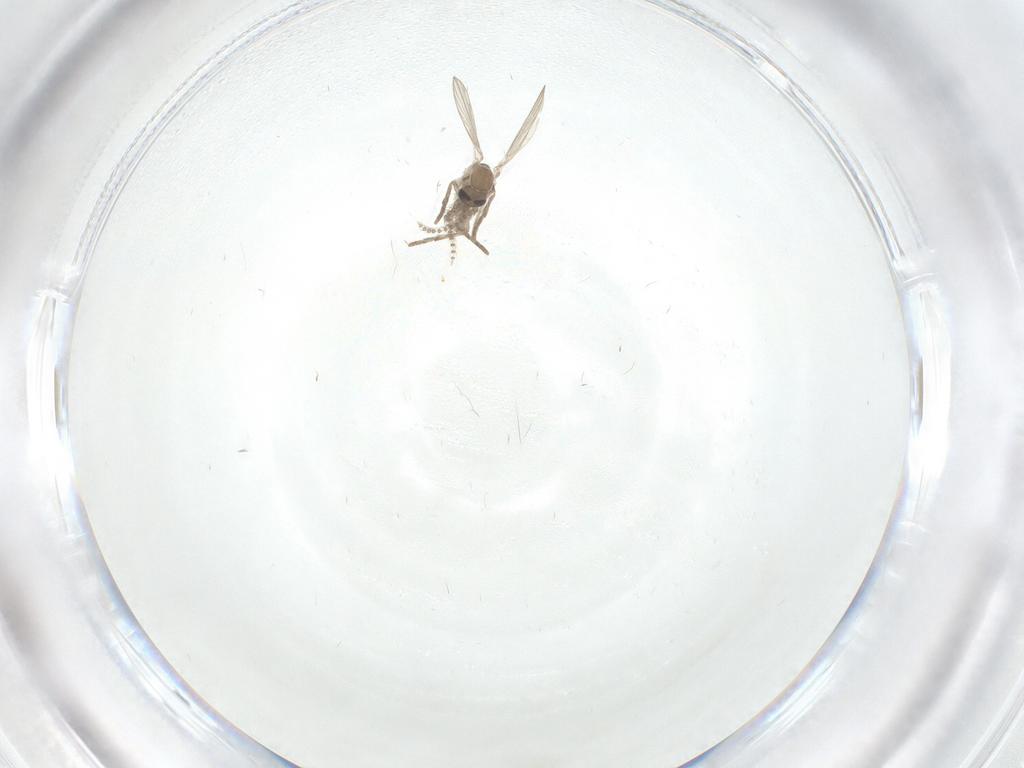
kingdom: Animalia
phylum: Arthropoda
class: Insecta
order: Diptera
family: Psychodidae
